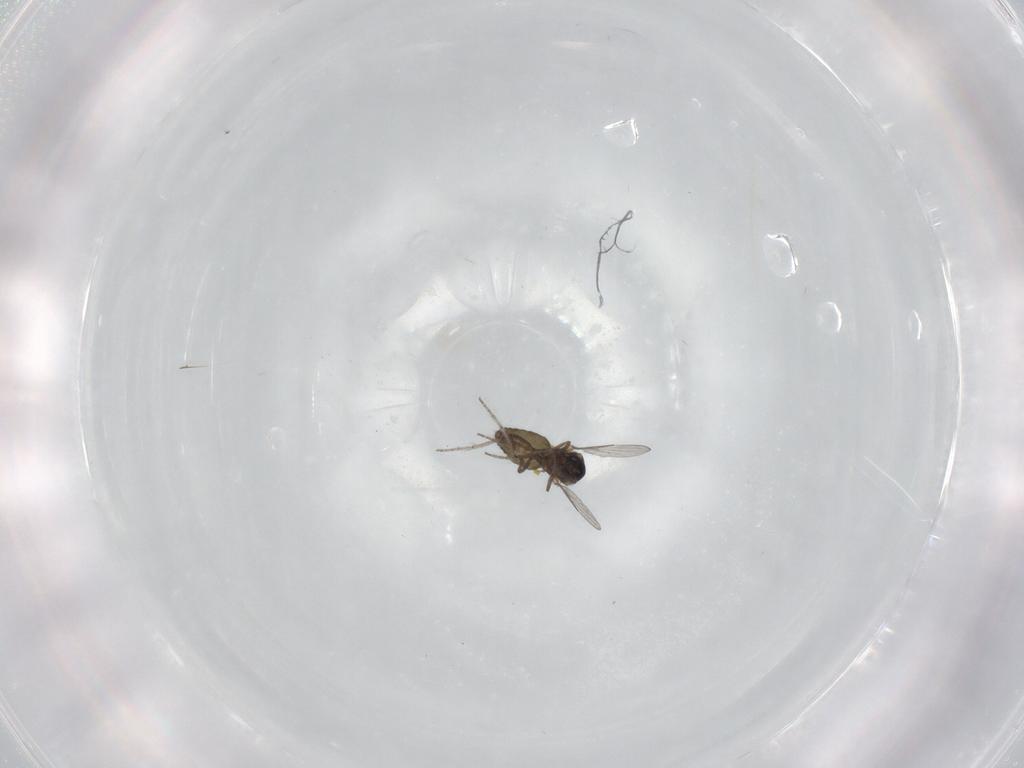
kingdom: Animalia
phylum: Arthropoda
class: Insecta
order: Diptera
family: Ceratopogonidae
